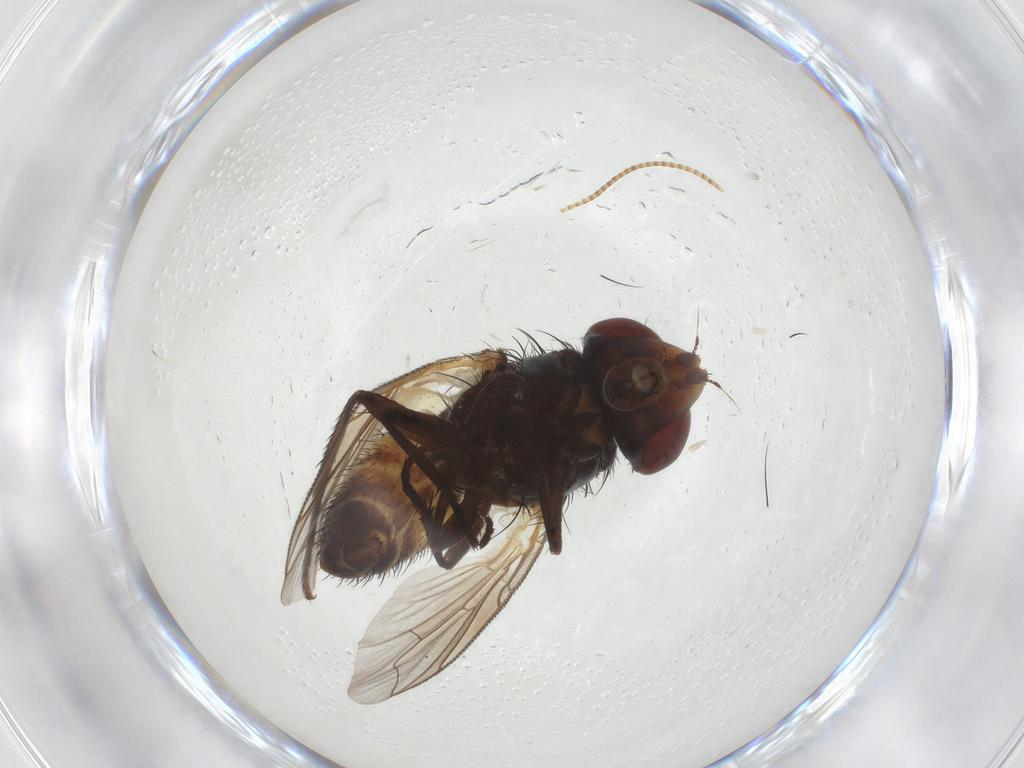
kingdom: Animalia
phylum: Arthropoda
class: Insecta
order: Diptera
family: Sarcophagidae
